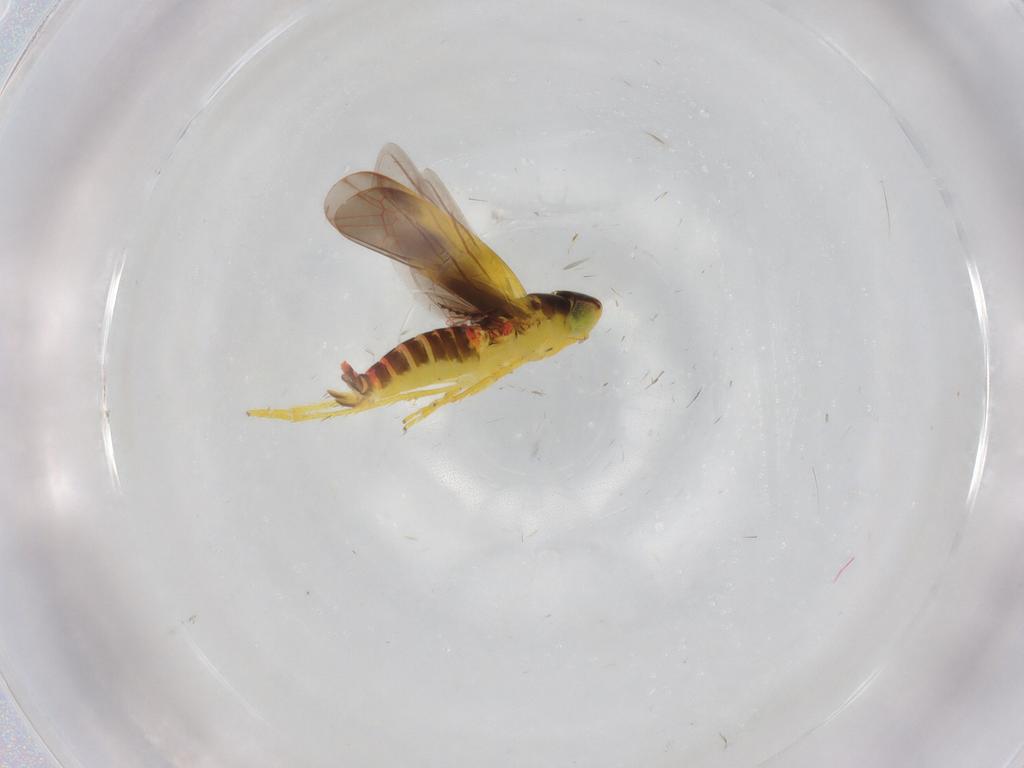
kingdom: Animalia
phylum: Arthropoda
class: Insecta
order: Hemiptera
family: Cicadellidae
